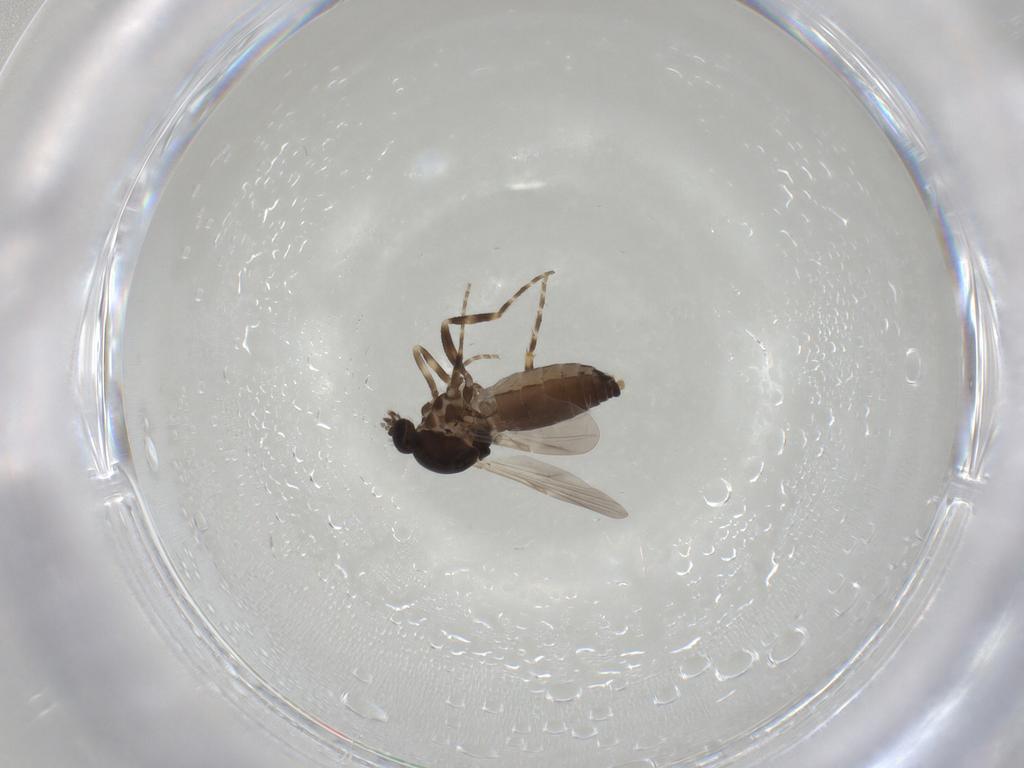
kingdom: Animalia
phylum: Arthropoda
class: Insecta
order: Diptera
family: Ceratopogonidae
